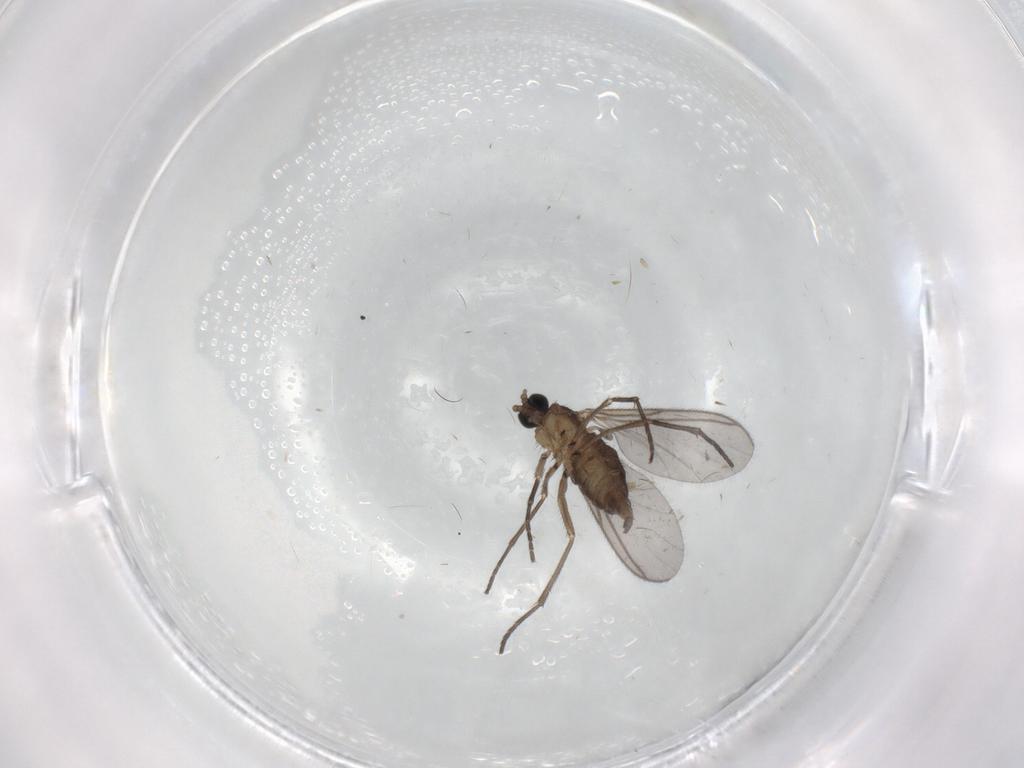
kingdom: Animalia
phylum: Arthropoda
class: Insecta
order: Diptera
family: Sciaridae
